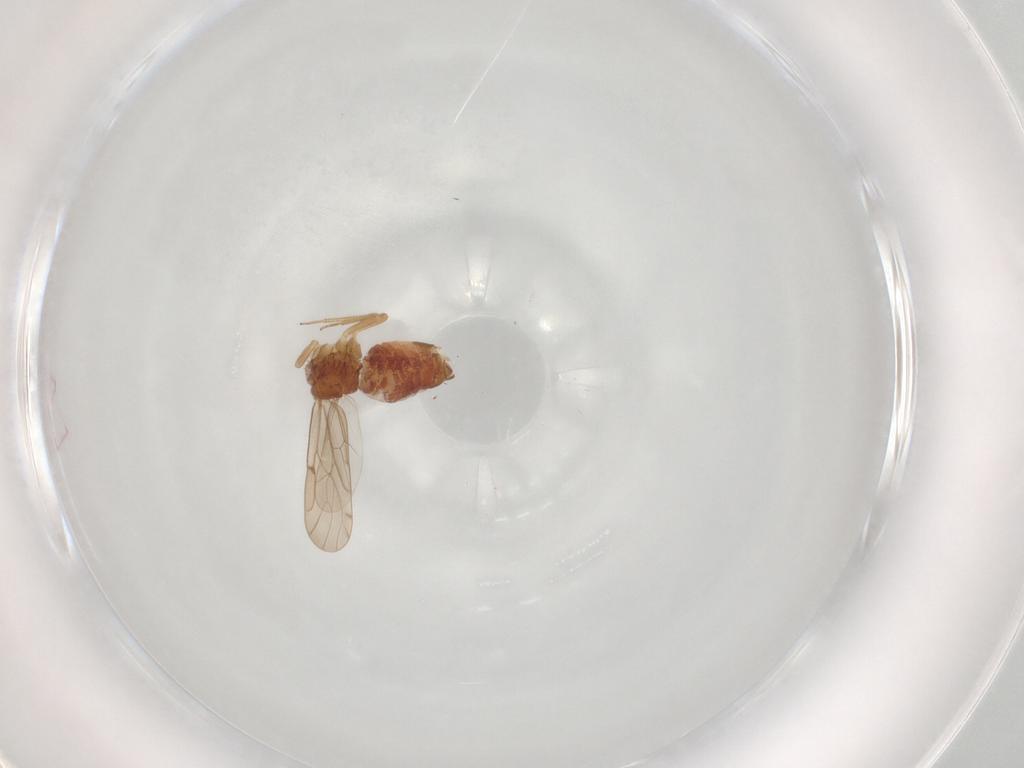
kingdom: Animalia
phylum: Arthropoda
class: Insecta
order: Psocodea
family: Ectopsocidae
